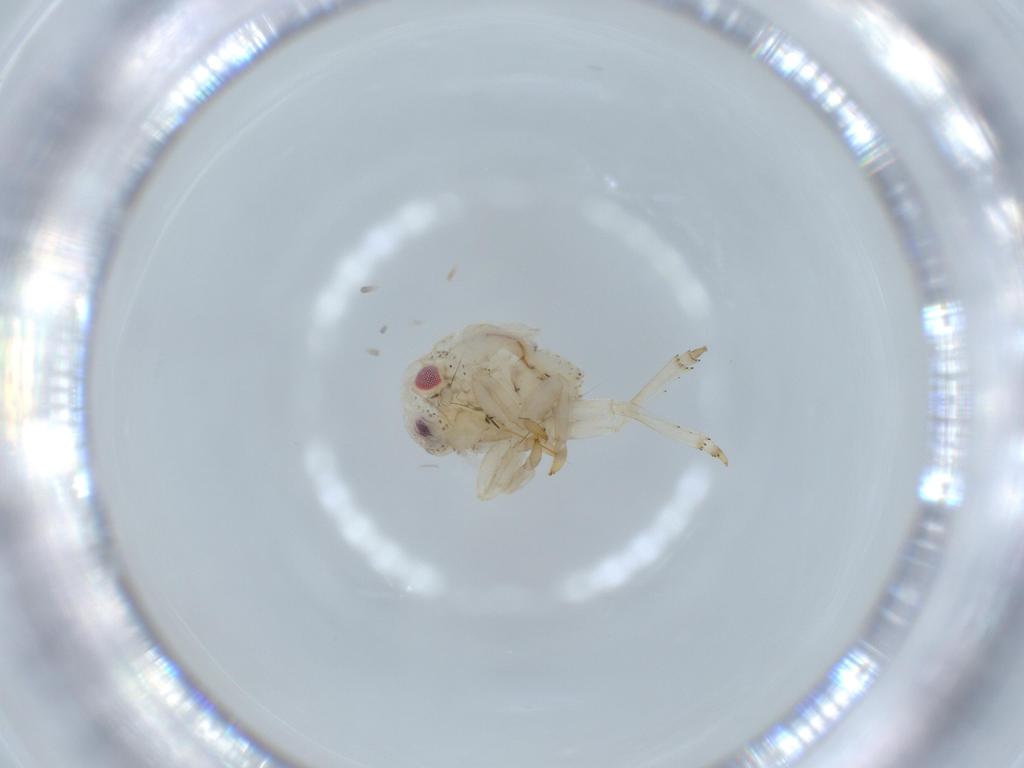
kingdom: Animalia
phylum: Arthropoda
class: Insecta
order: Hemiptera
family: Acanaloniidae
